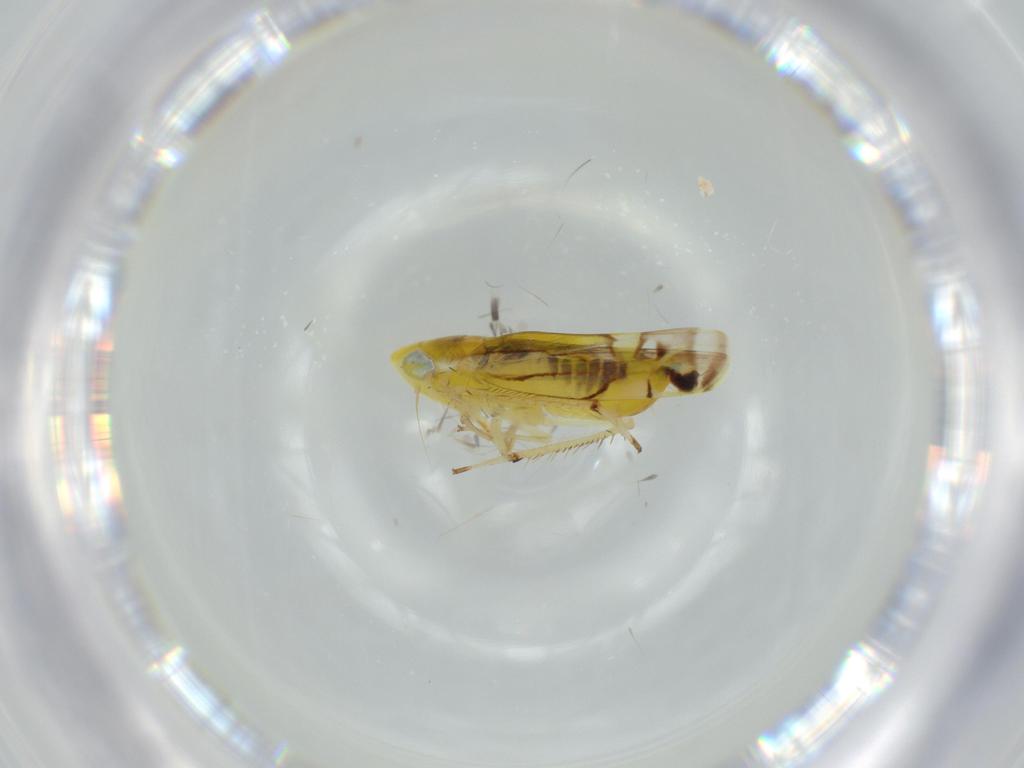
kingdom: Animalia
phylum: Arthropoda
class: Insecta
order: Hemiptera
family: Cicadellidae
